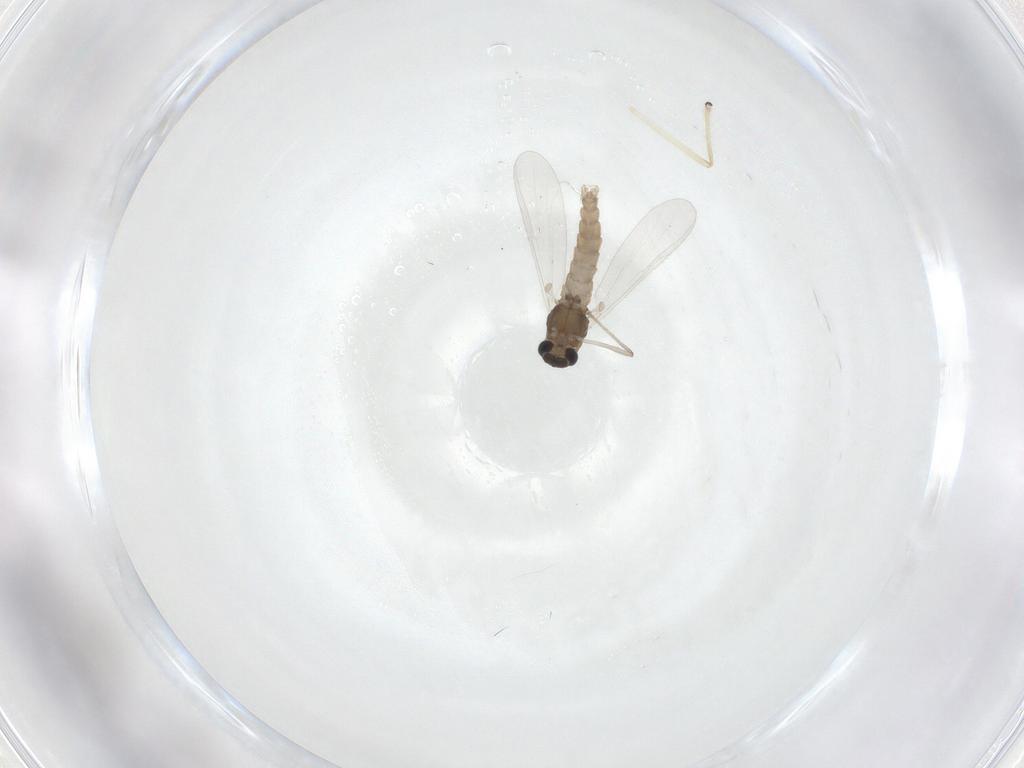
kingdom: Animalia
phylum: Arthropoda
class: Insecta
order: Diptera
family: Chironomidae
